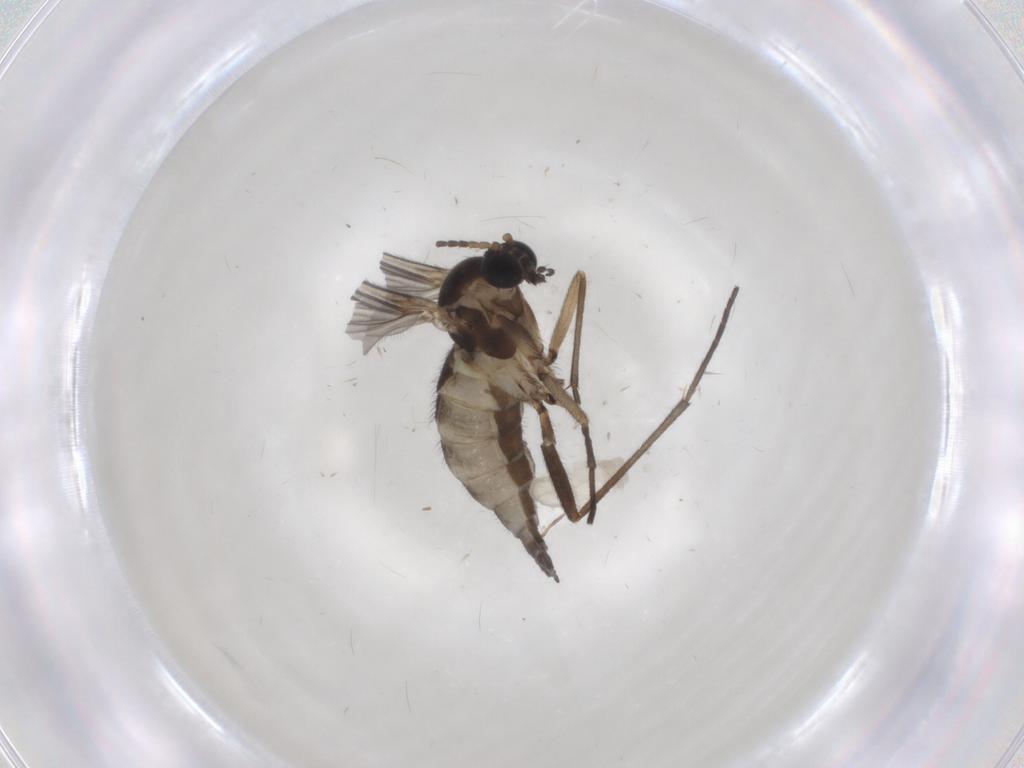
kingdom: Animalia
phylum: Arthropoda
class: Insecta
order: Diptera
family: Sciaridae
